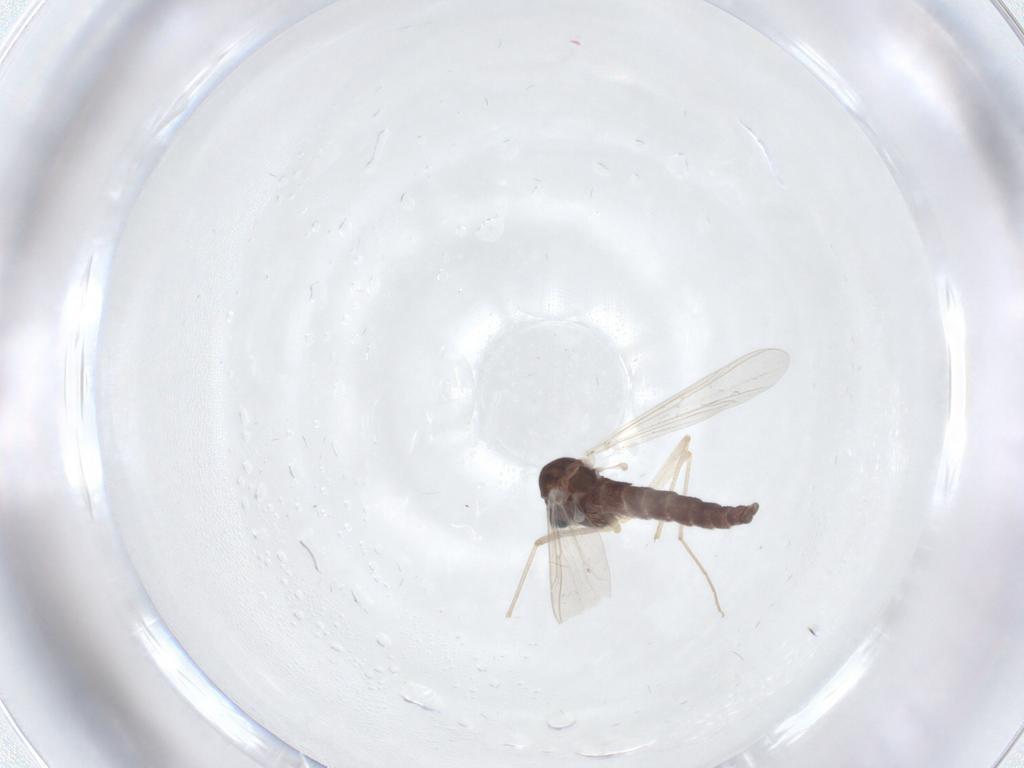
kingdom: Animalia
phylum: Arthropoda
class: Insecta
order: Diptera
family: Chironomidae
